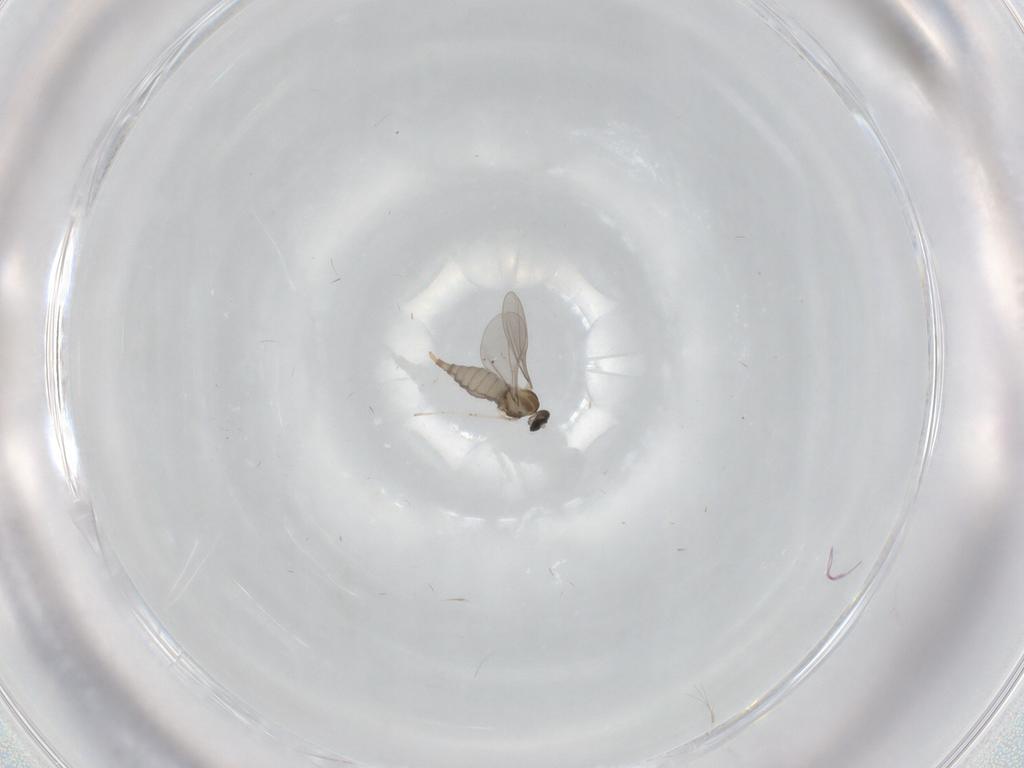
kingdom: Animalia
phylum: Arthropoda
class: Insecta
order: Diptera
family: Cecidomyiidae
